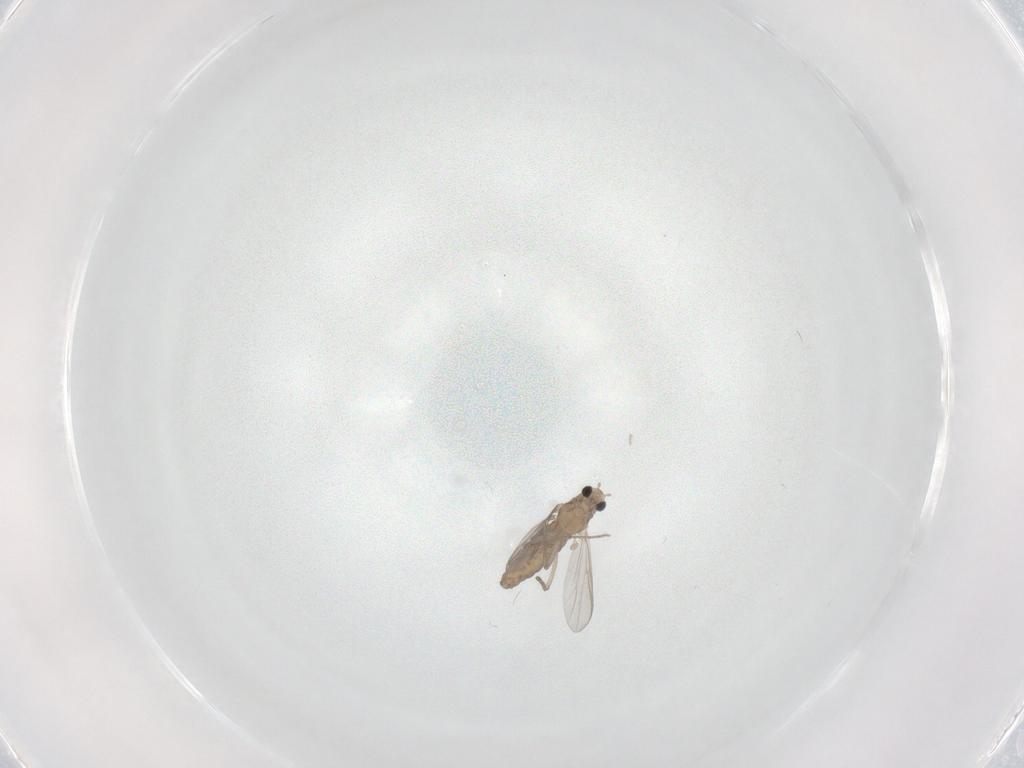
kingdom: Animalia
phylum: Arthropoda
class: Insecta
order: Diptera
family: Chironomidae
